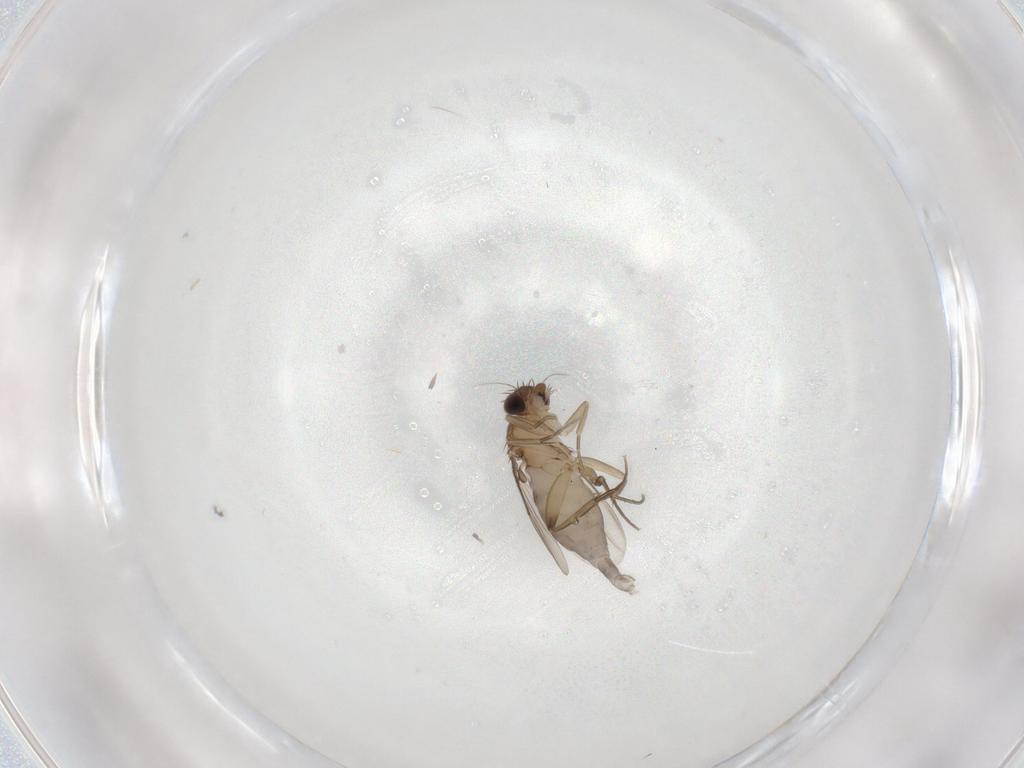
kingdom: Animalia
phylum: Arthropoda
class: Insecta
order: Diptera
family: Phoridae
